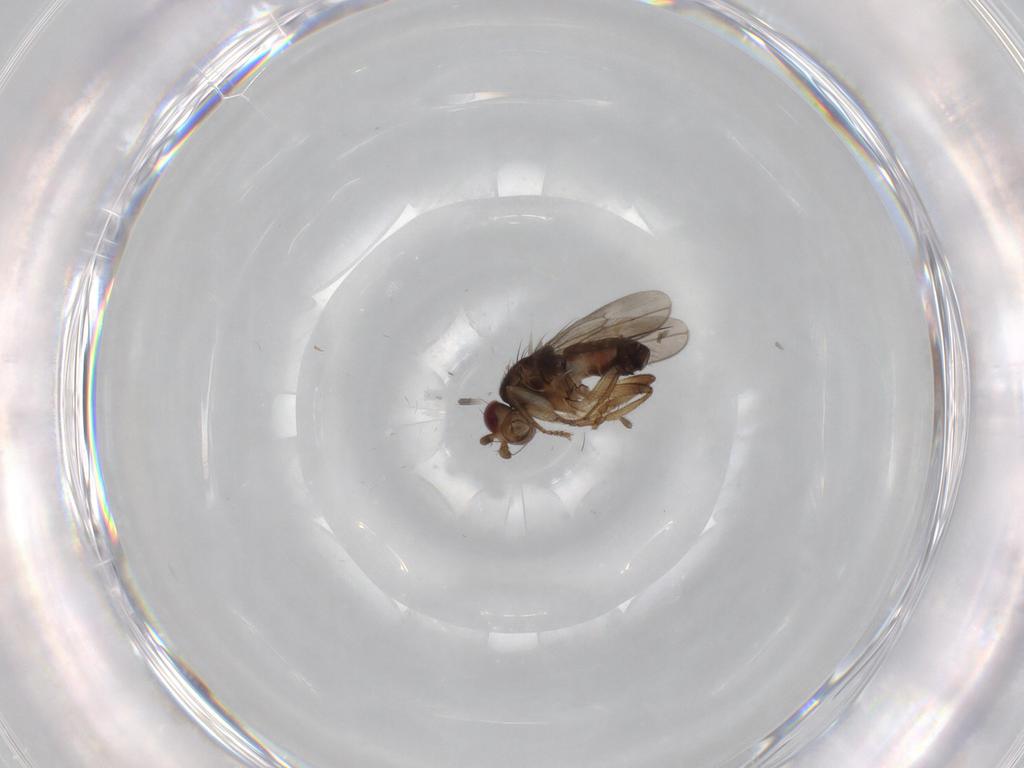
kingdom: Animalia
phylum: Arthropoda
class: Insecta
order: Diptera
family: Sphaeroceridae
